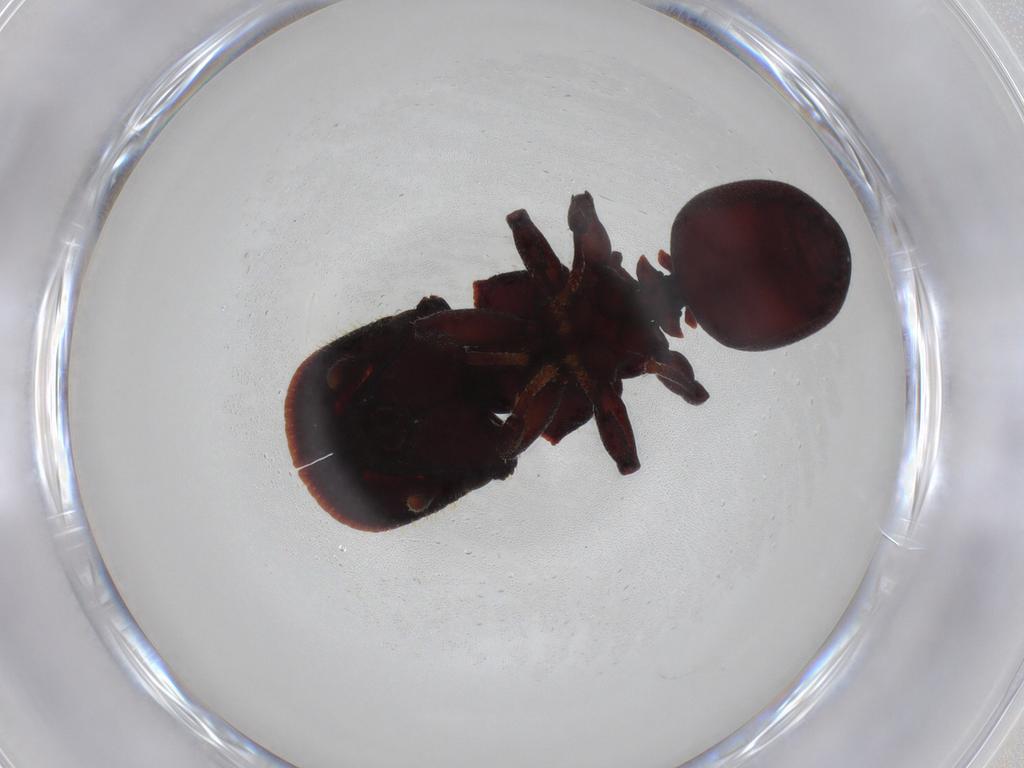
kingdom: Animalia
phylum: Arthropoda
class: Insecta
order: Hymenoptera
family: Formicidae
